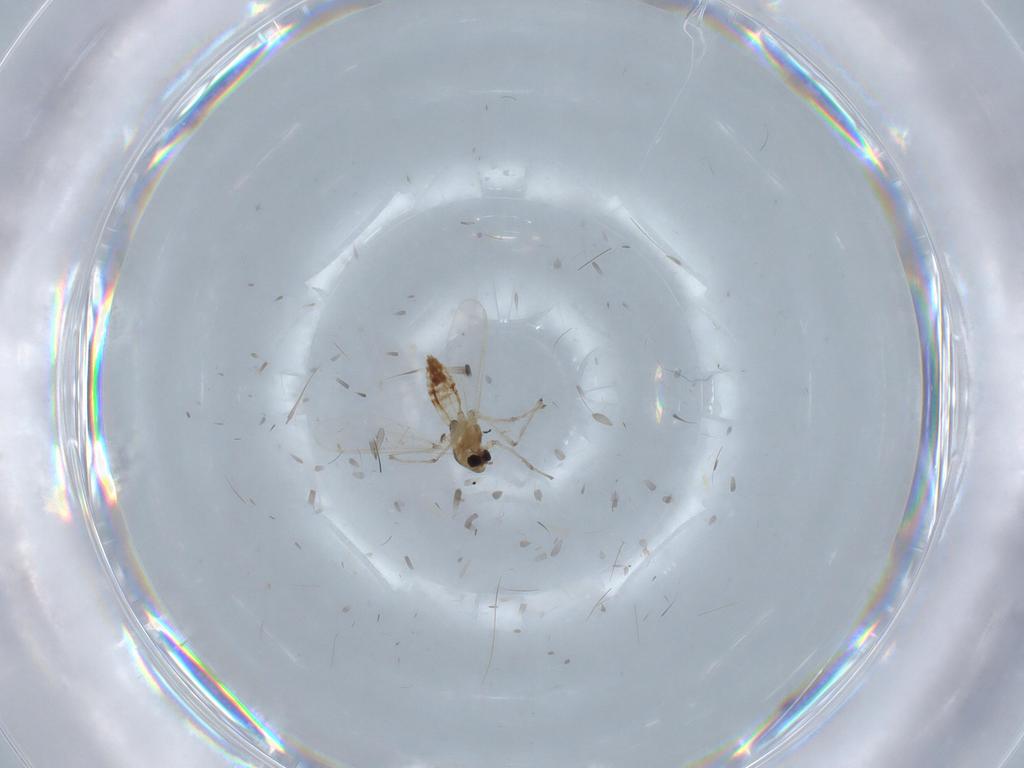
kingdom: Animalia
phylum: Arthropoda
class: Insecta
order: Diptera
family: Chironomidae
